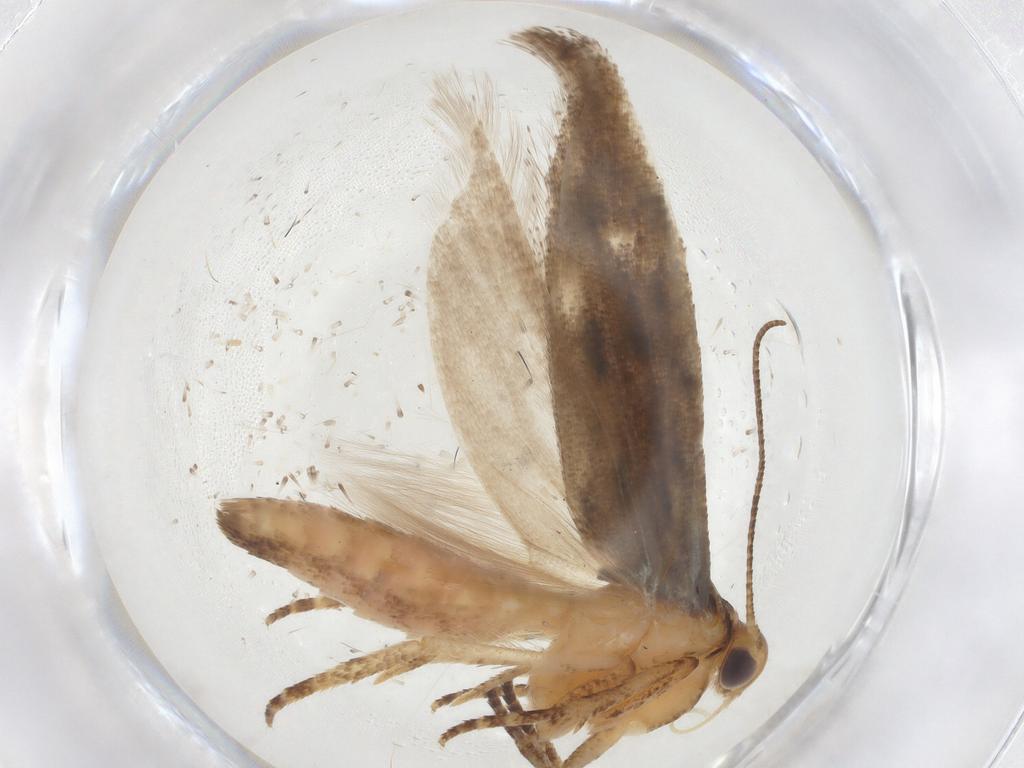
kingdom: Animalia
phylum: Arthropoda
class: Insecta
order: Lepidoptera
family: Gelechiidae
